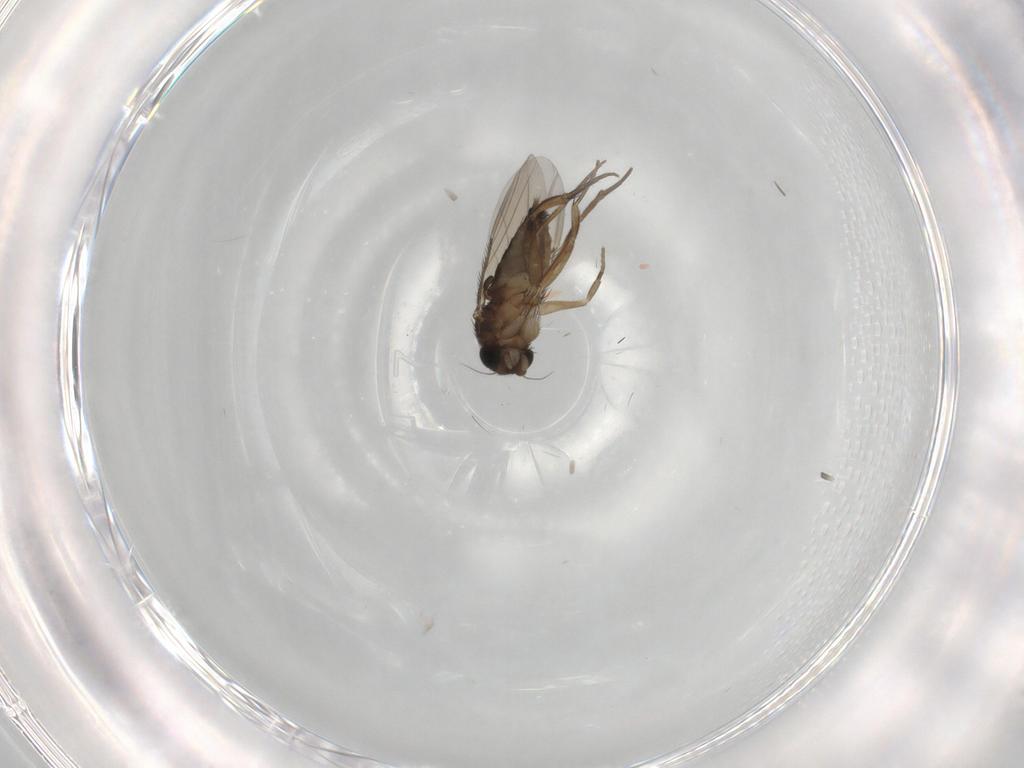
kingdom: Animalia
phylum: Arthropoda
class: Insecta
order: Diptera
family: Phoridae
